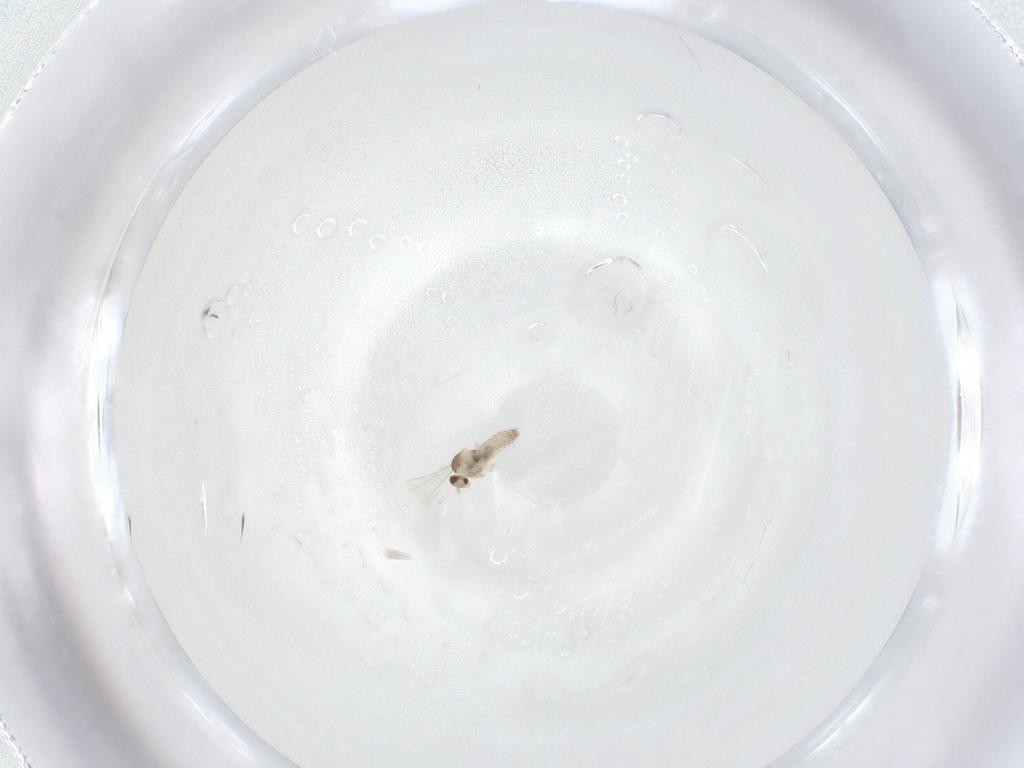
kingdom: Animalia
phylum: Arthropoda
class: Insecta
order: Diptera
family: Cecidomyiidae
